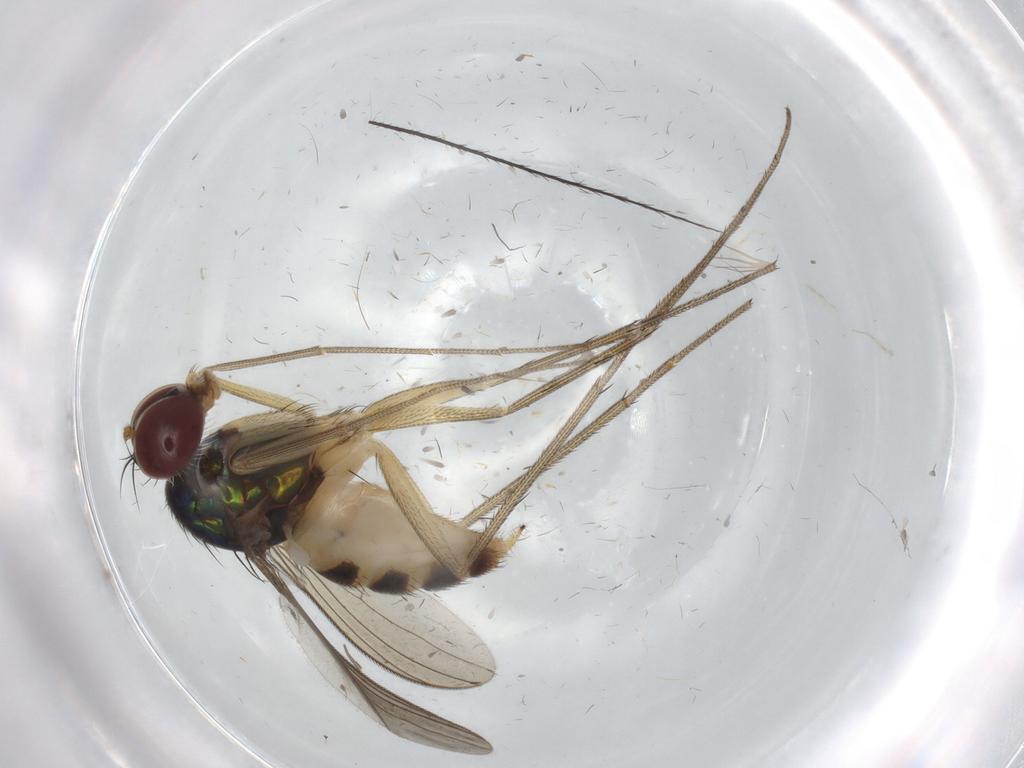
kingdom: Animalia
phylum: Arthropoda
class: Insecta
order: Diptera
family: Dolichopodidae
